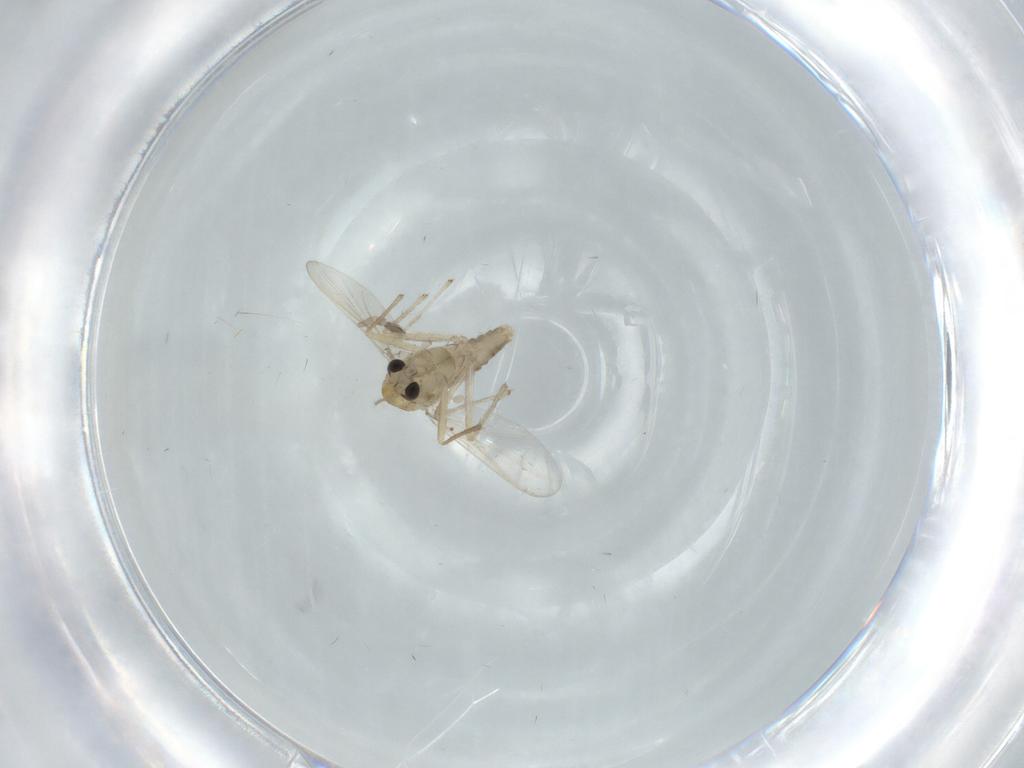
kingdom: Animalia
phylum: Arthropoda
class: Insecta
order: Diptera
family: Chironomidae
